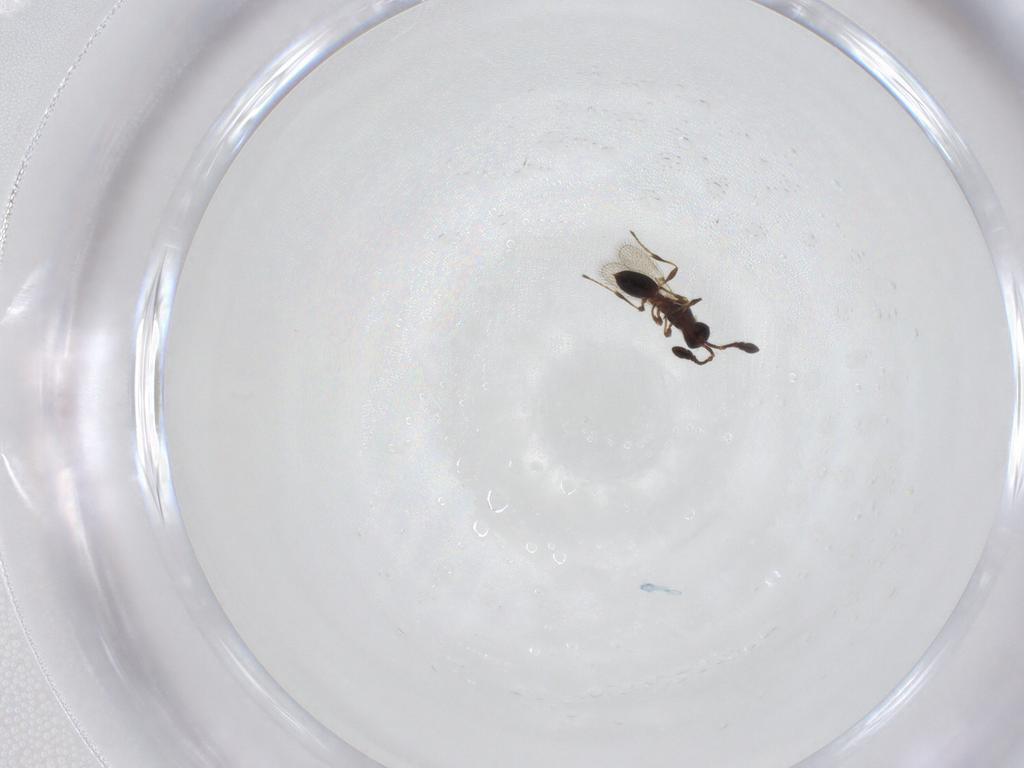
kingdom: Animalia
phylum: Arthropoda
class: Insecta
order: Hymenoptera
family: Diapriidae
